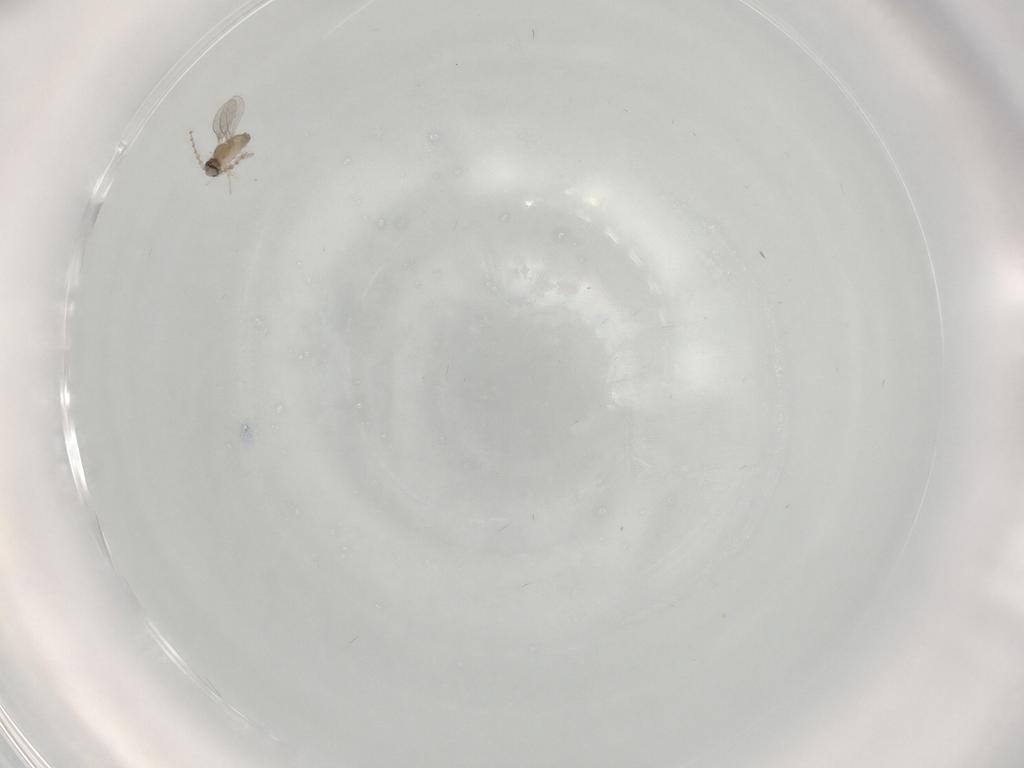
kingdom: Animalia
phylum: Arthropoda
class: Insecta
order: Diptera
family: Cecidomyiidae
